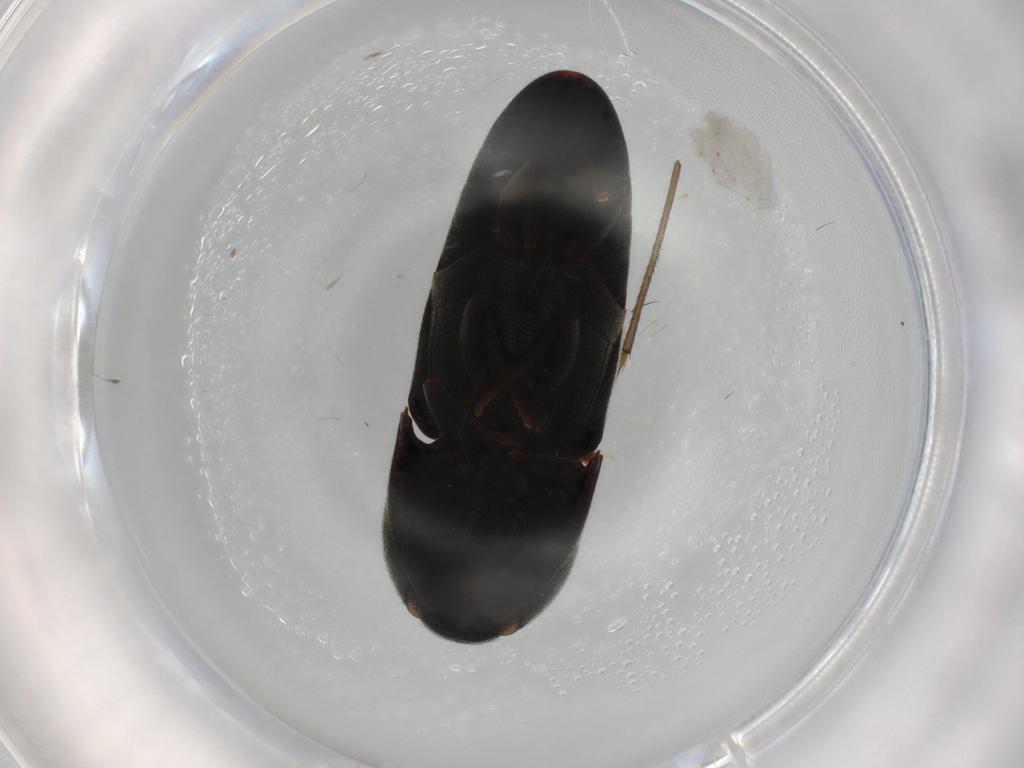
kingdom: Animalia
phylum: Arthropoda
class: Insecta
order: Coleoptera
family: Eucnemidae
